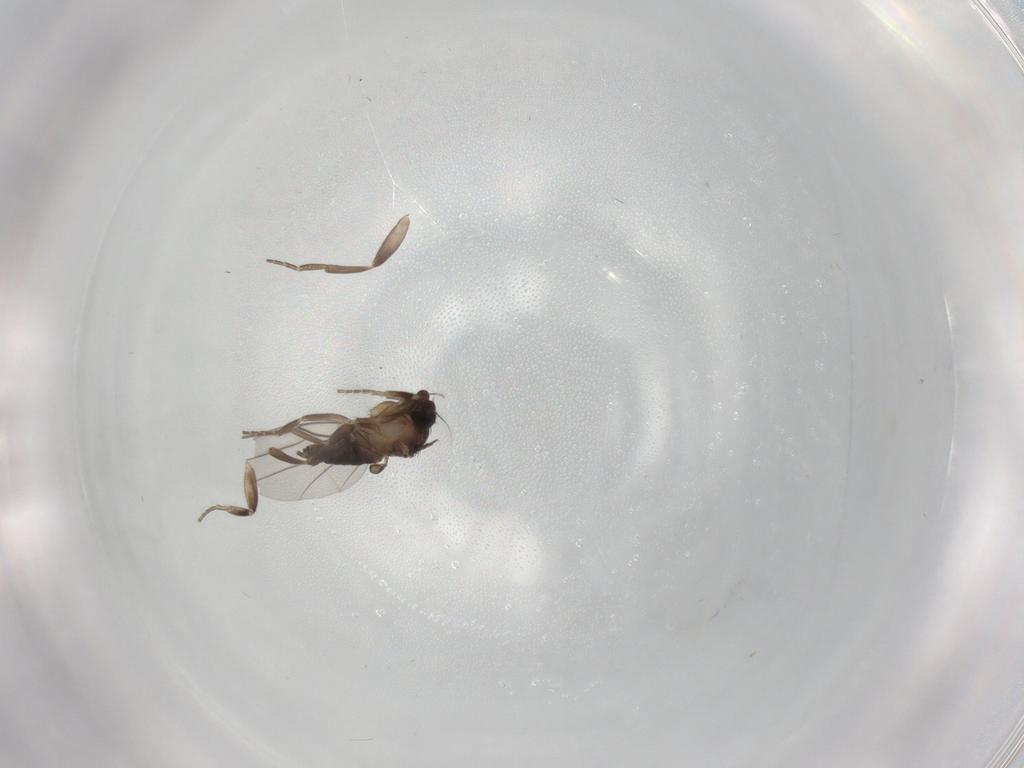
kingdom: Animalia
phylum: Arthropoda
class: Insecta
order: Diptera
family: Phoridae
